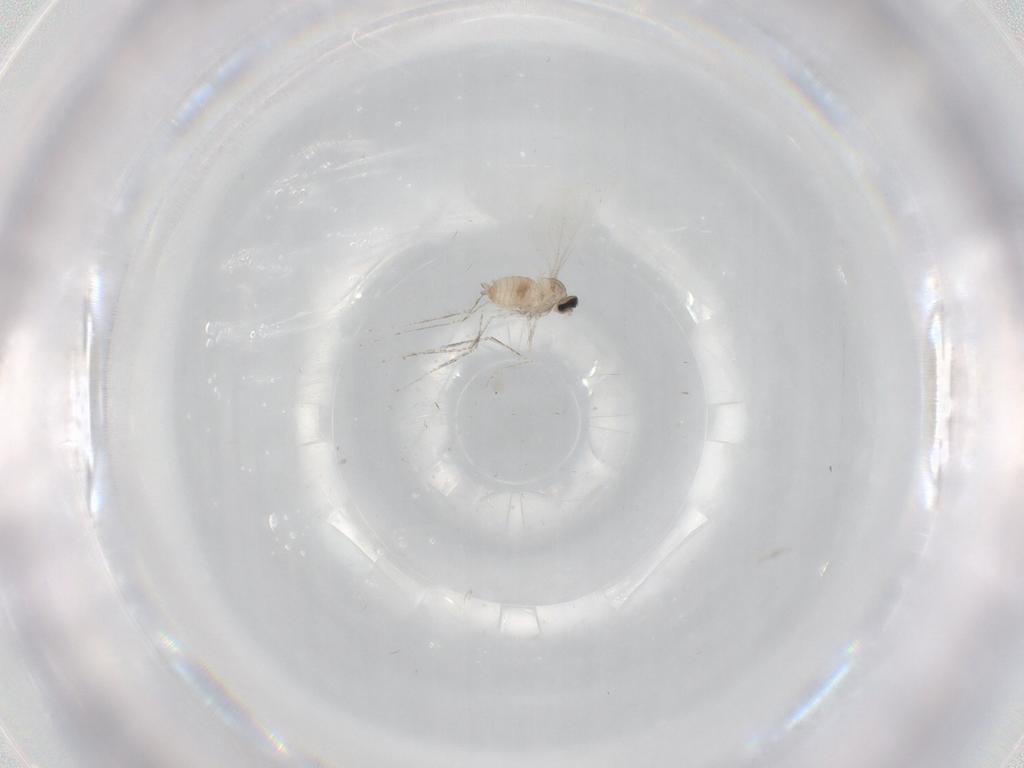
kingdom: Animalia
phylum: Arthropoda
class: Insecta
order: Diptera
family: Cecidomyiidae
